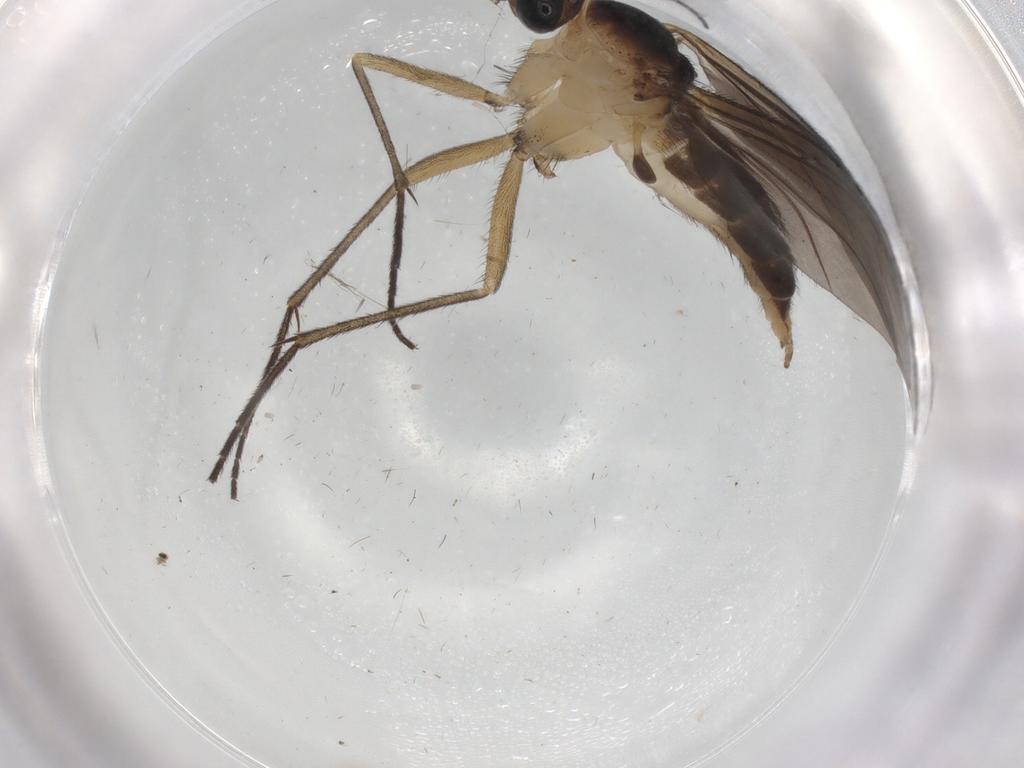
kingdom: Animalia
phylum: Arthropoda
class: Insecta
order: Diptera
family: Sciaridae
